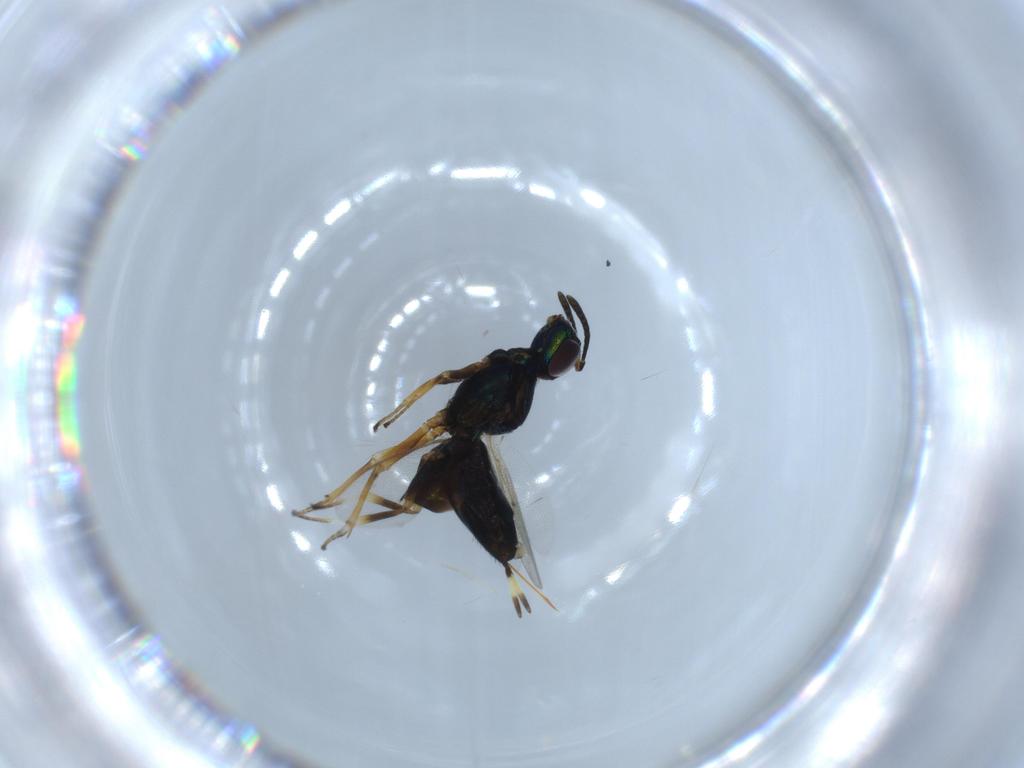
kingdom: Animalia
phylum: Arthropoda
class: Insecta
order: Hymenoptera
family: Eupelmidae
